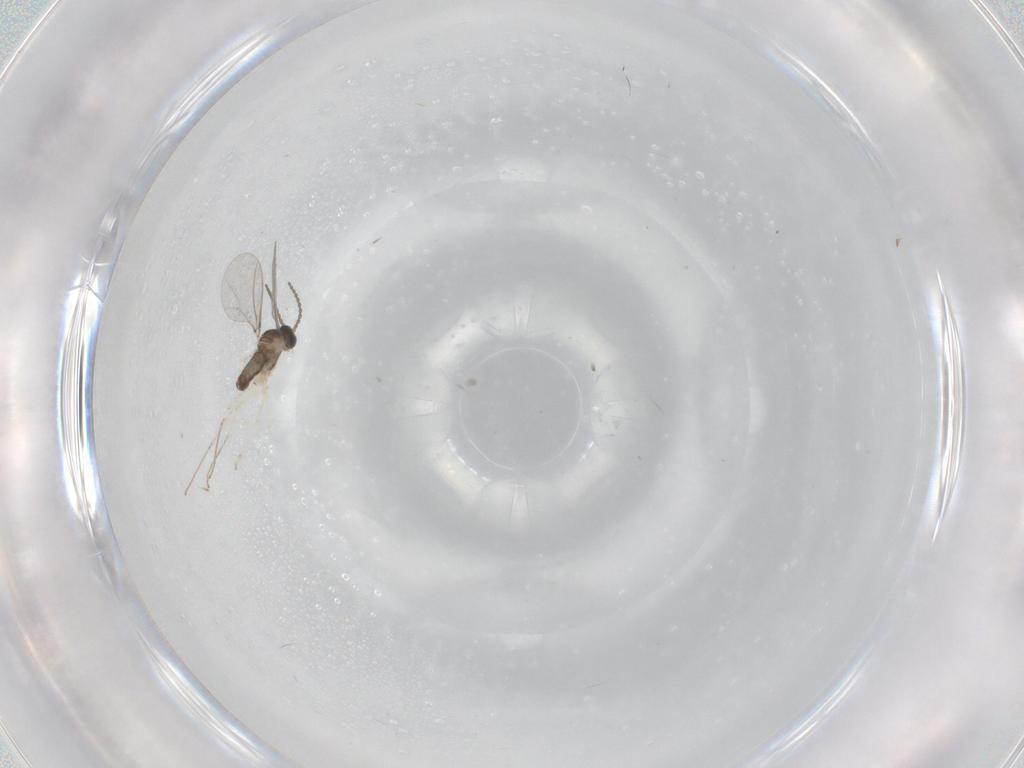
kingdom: Animalia
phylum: Arthropoda
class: Insecta
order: Diptera
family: Cecidomyiidae
